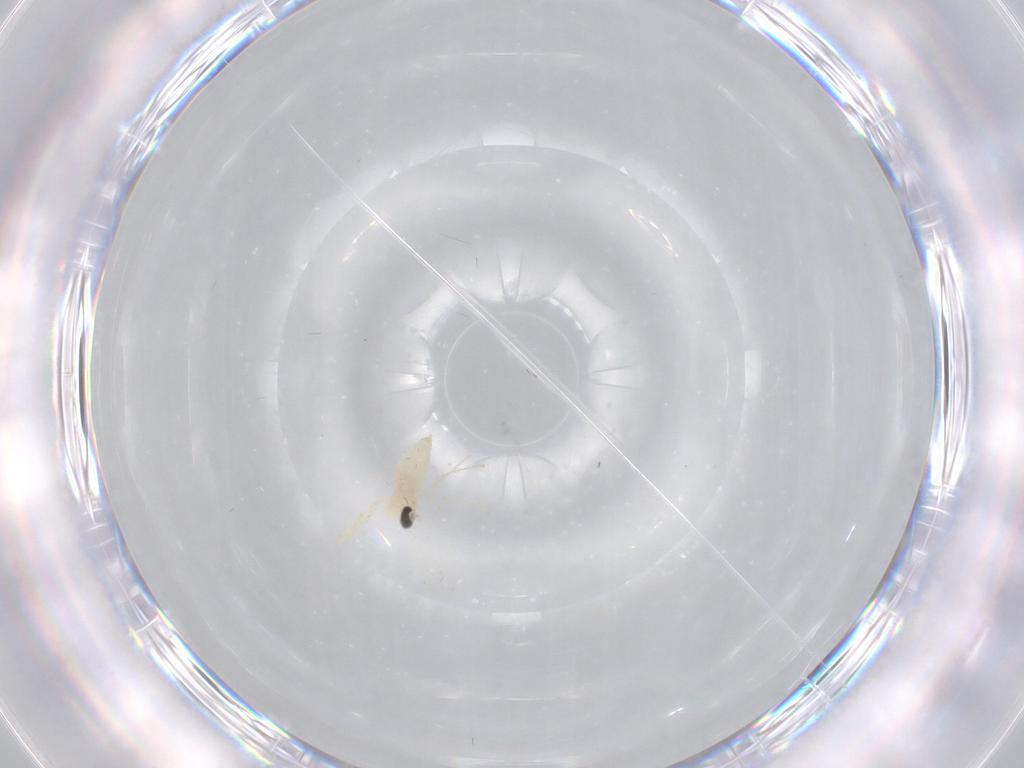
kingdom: Animalia
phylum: Arthropoda
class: Insecta
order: Diptera
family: Cecidomyiidae
